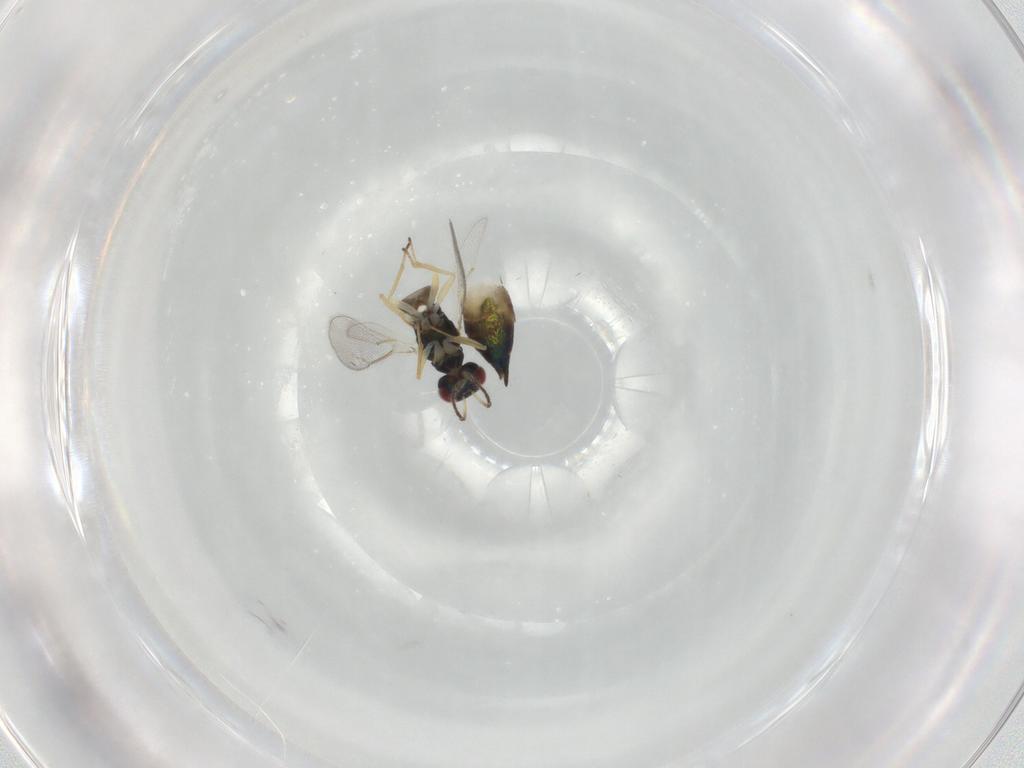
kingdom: Animalia
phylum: Arthropoda
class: Insecta
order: Hymenoptera
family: Eulophidae
